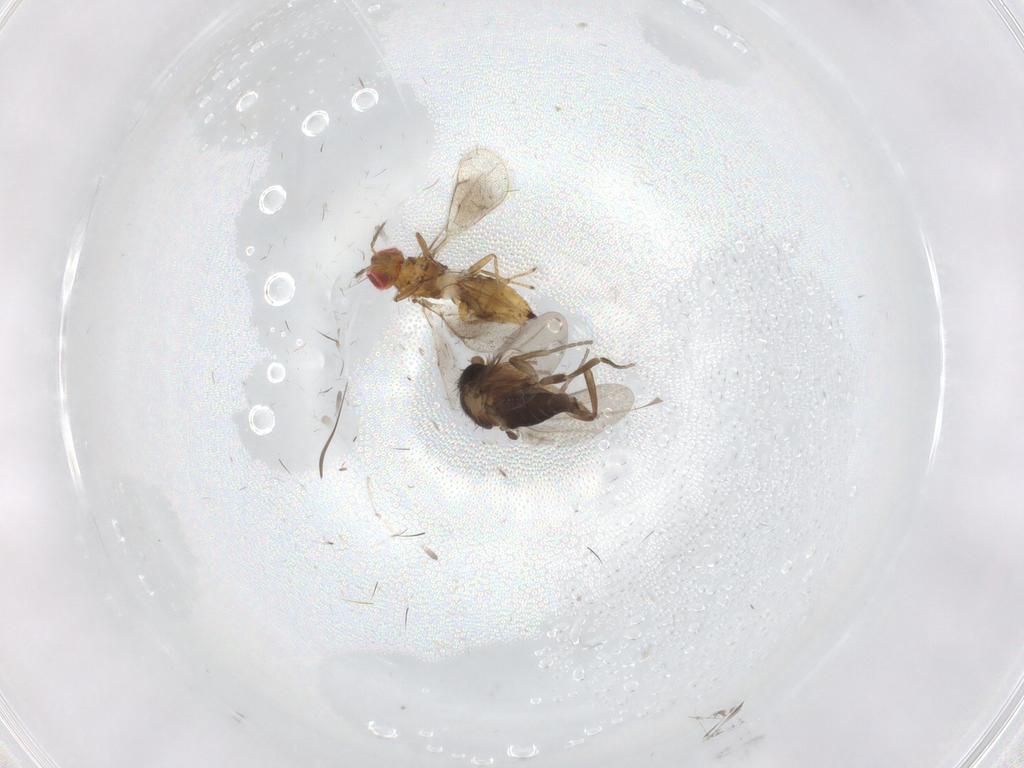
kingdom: Animalia
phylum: Arthropoda
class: Insecta
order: Diptera
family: Phoridae
